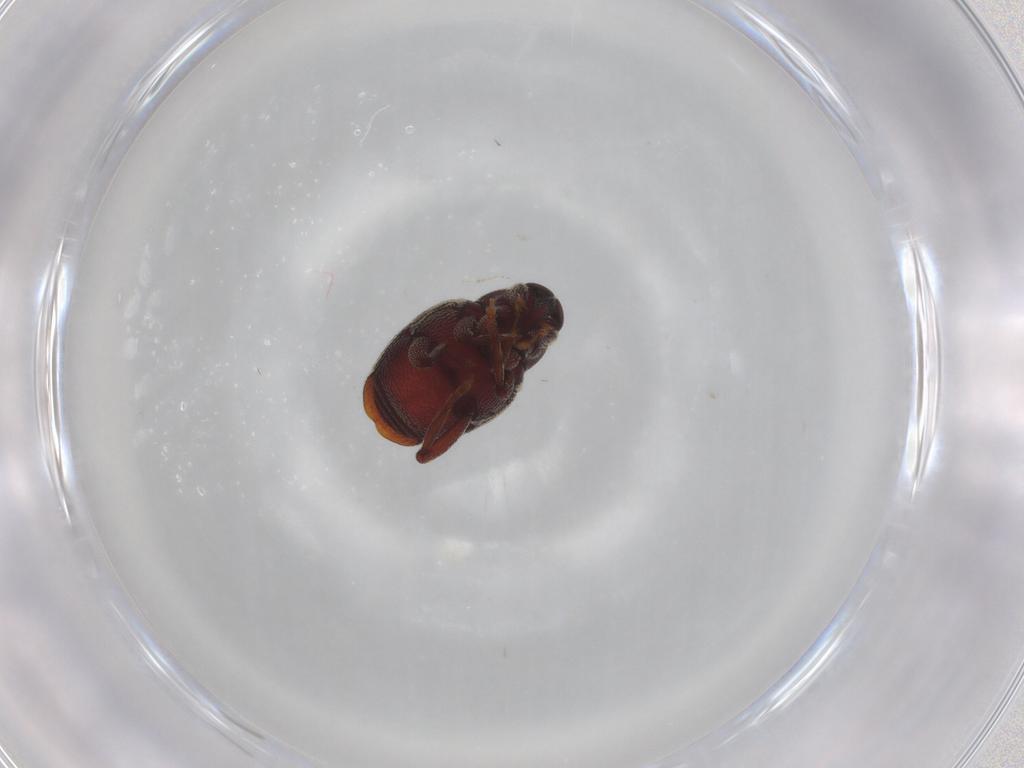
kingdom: Animalia
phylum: Arthropoda
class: Insecta
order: Coleoptera
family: Curculionidae
